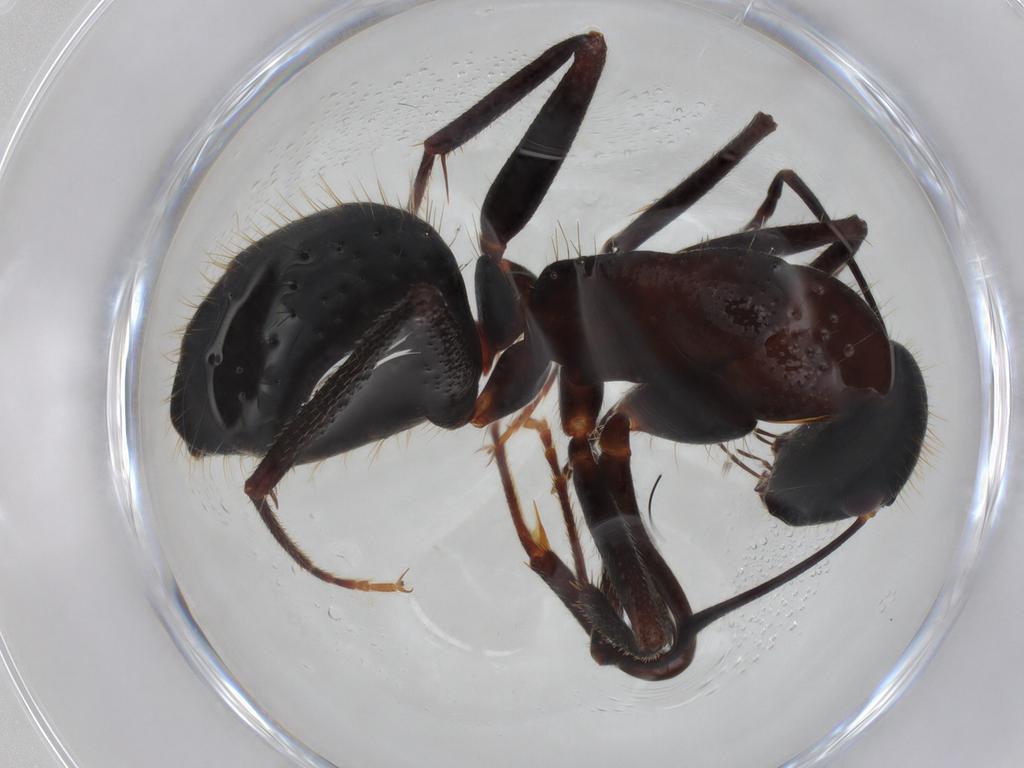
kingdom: Animalia
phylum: Arthropoda
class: Insecta
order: Hymenoptera
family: Formicidae
